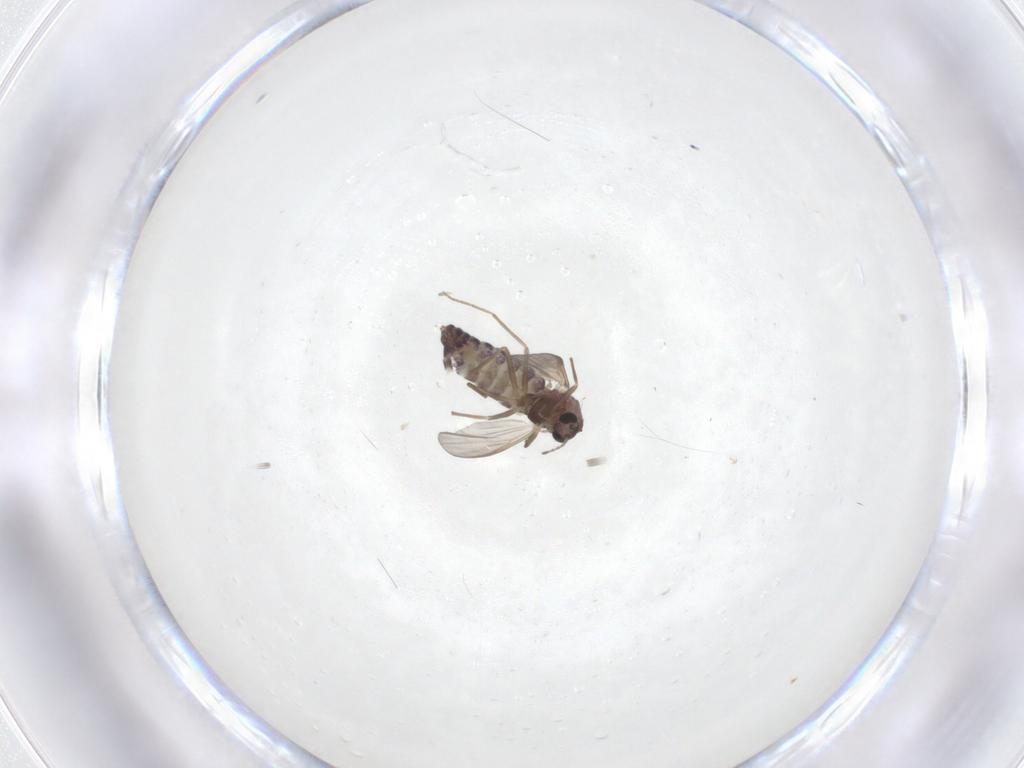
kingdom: Animalia
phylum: Arthropoda
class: Insecta
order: Diptera
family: Chironomidae
